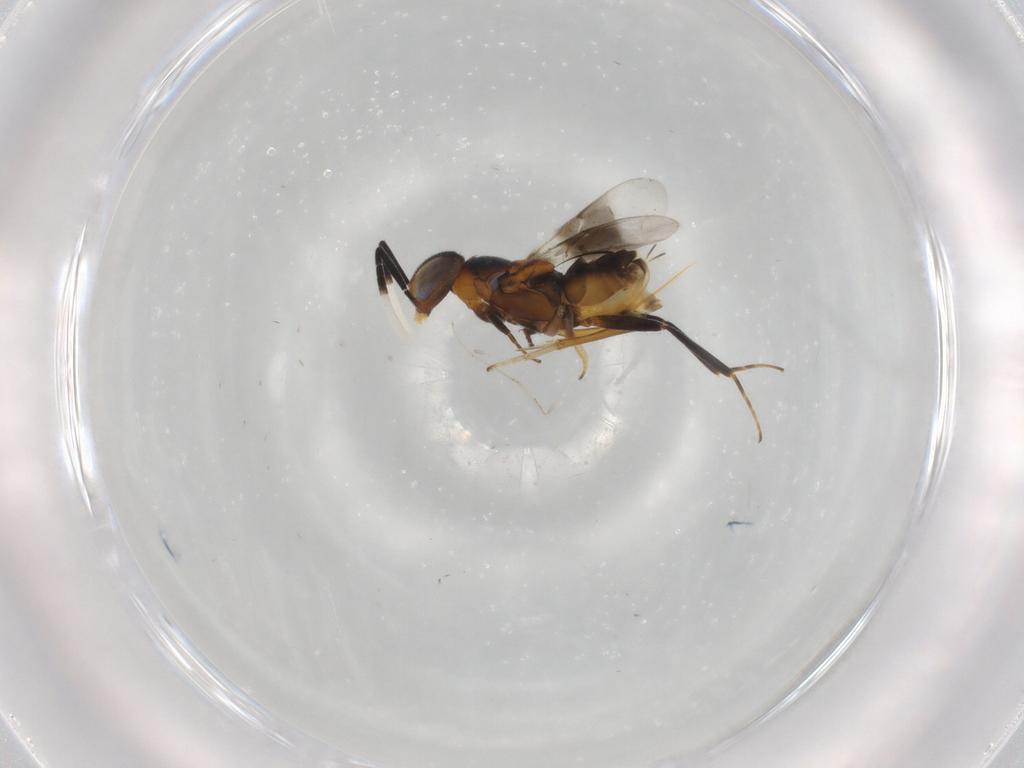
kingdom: Animalia
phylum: Arthropoda
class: Insecta
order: Hymenoptera
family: Encyrtidae
